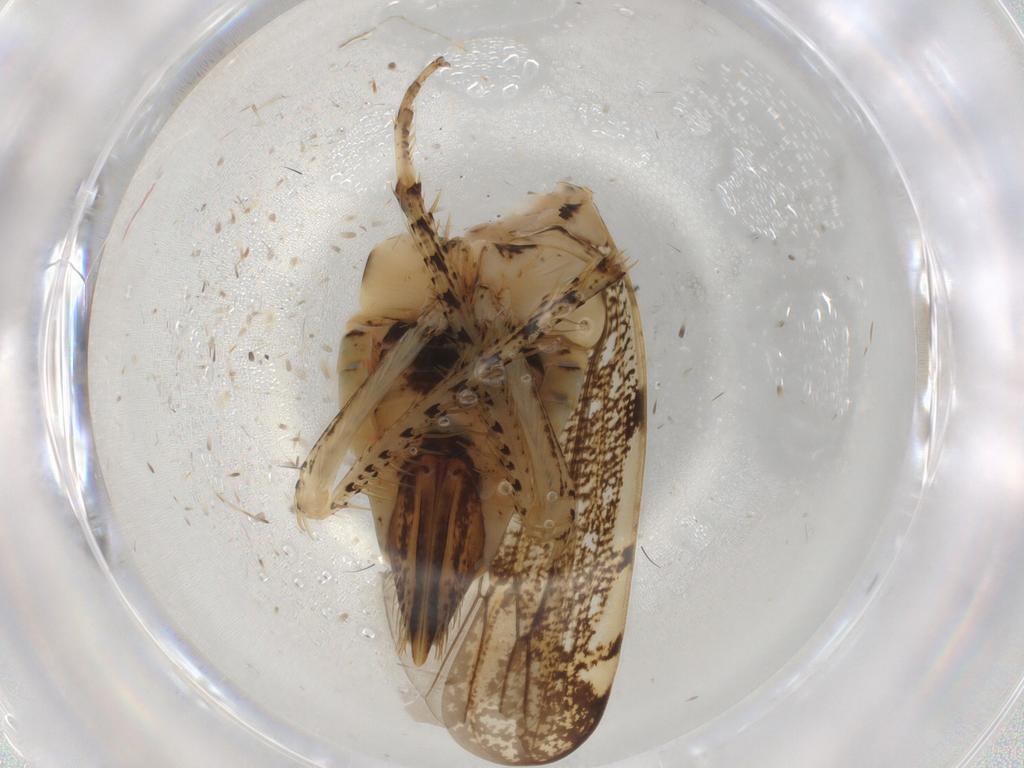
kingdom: Animalia
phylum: Arthropoda
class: Insecta
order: Hemiptera
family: Cicadellidae
